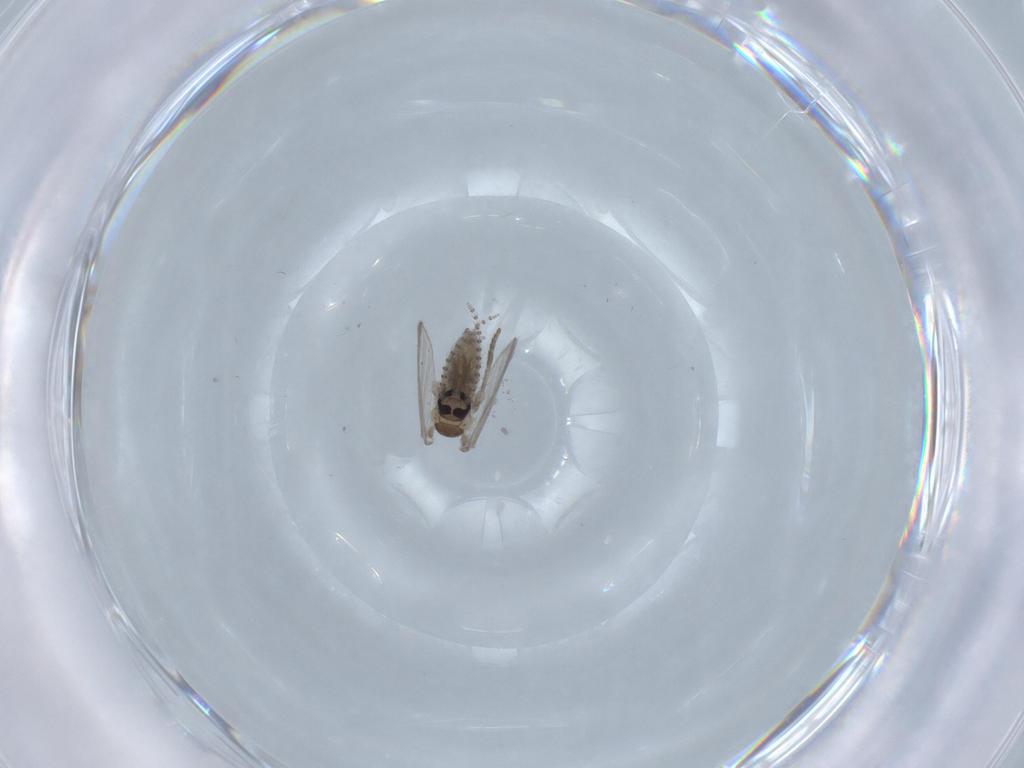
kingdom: Animalia
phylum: Arthropoda
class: Insecta
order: Diptera
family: Psychodidae
